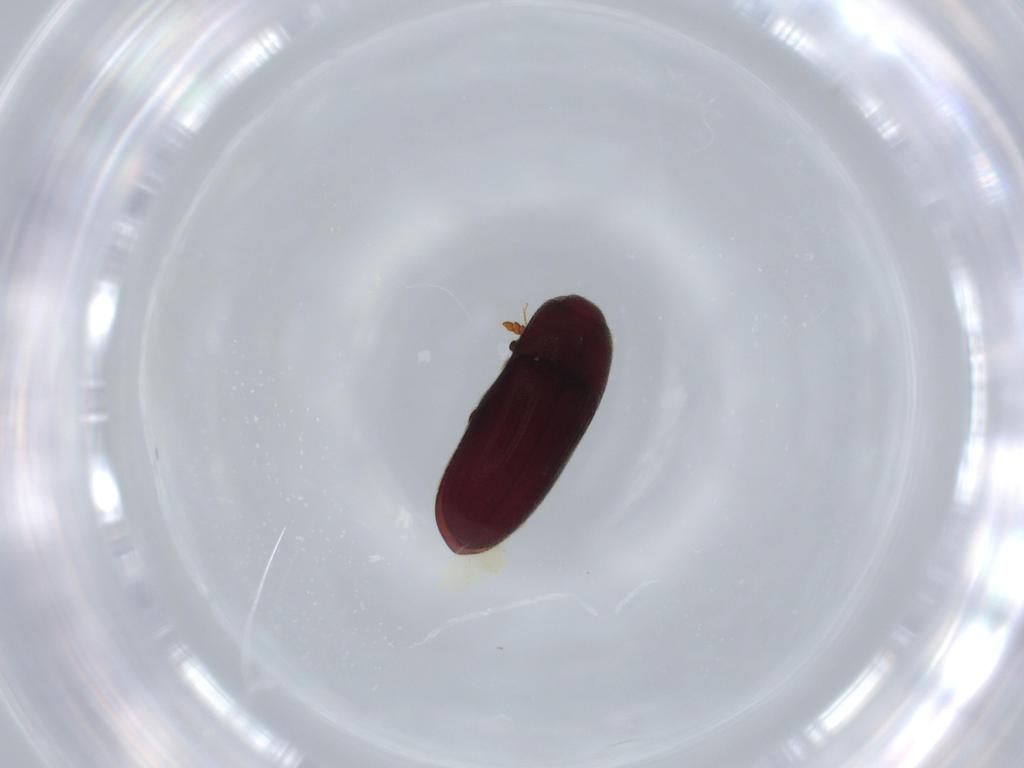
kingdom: Animalia
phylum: Arthropoda
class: Insecta
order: Coleoptera
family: Throscidae
